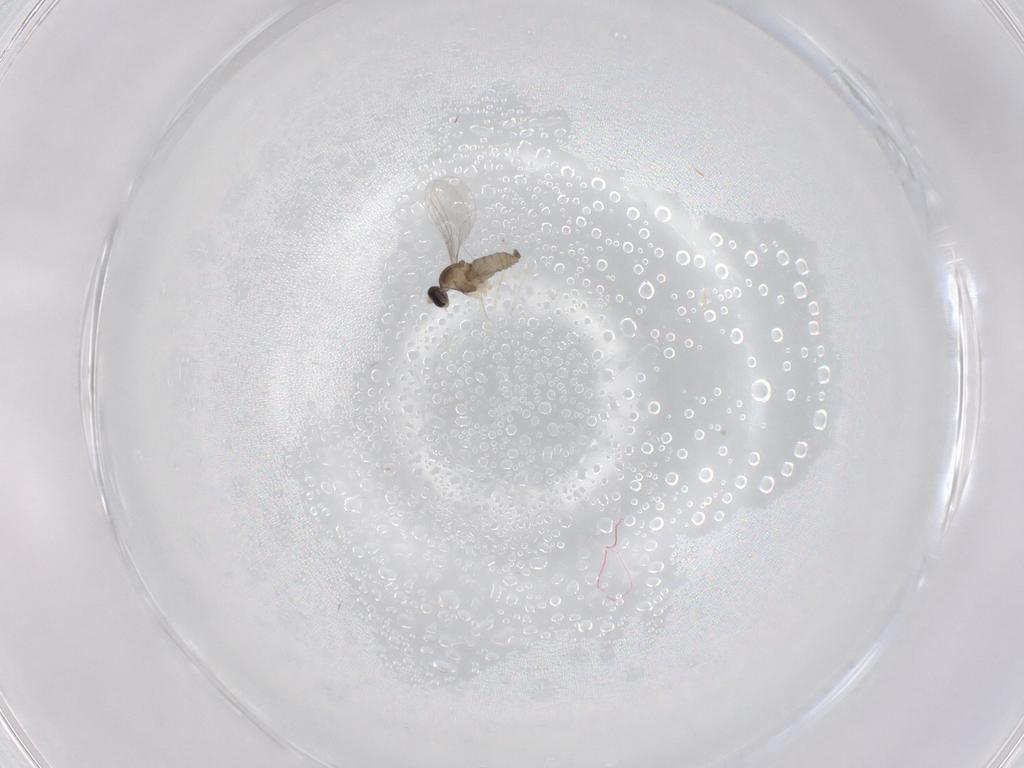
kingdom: Animalia
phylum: Arthropoda
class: Insecta
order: Diptera
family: Cecidomyiidae
